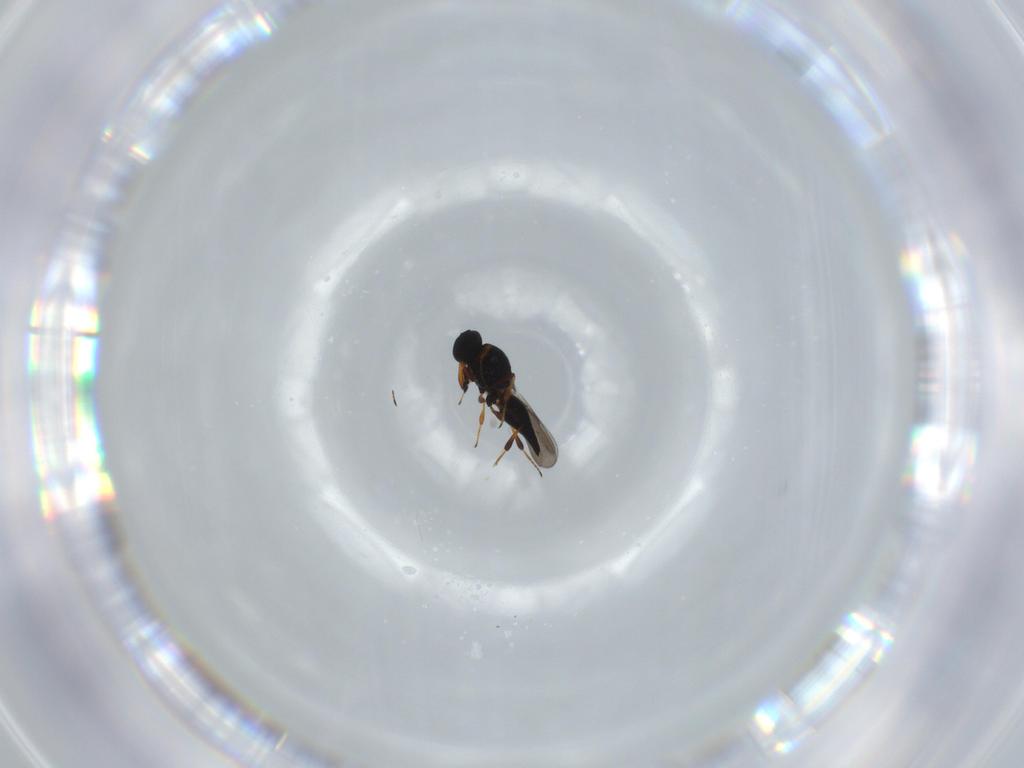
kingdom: Animalia
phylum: Arthropoda
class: Insecta
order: Hymenoptera
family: Platygastridae
